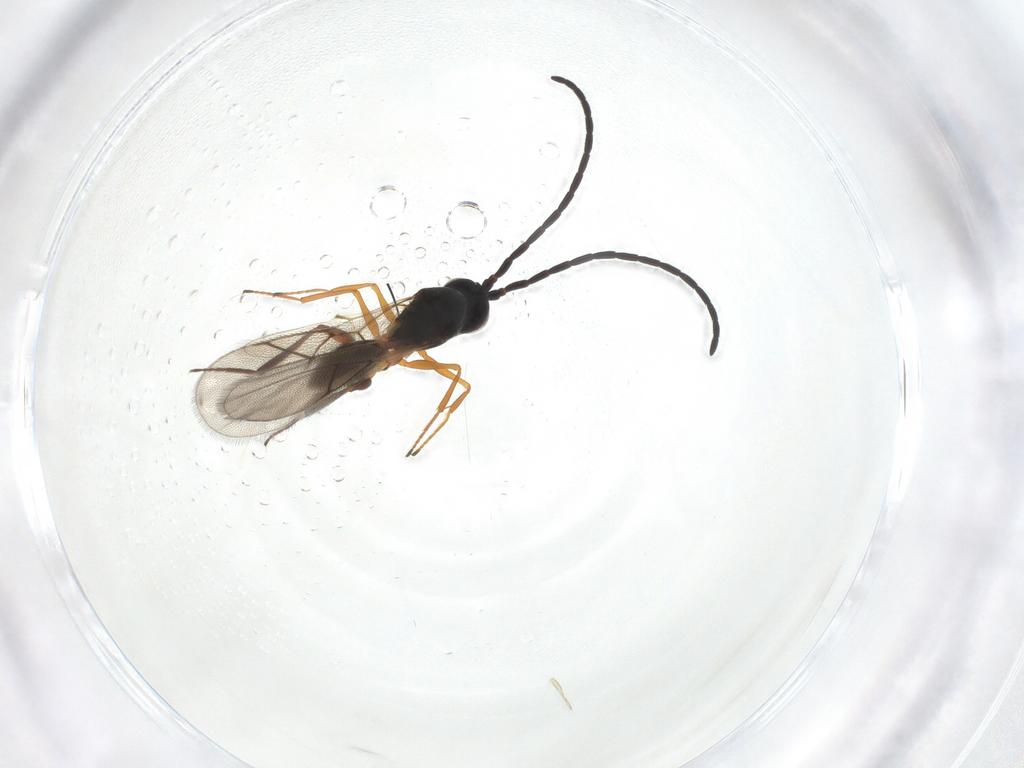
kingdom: Animalia
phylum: Arthropoda
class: Insecta
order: Hymenoptera
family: Figitidae
